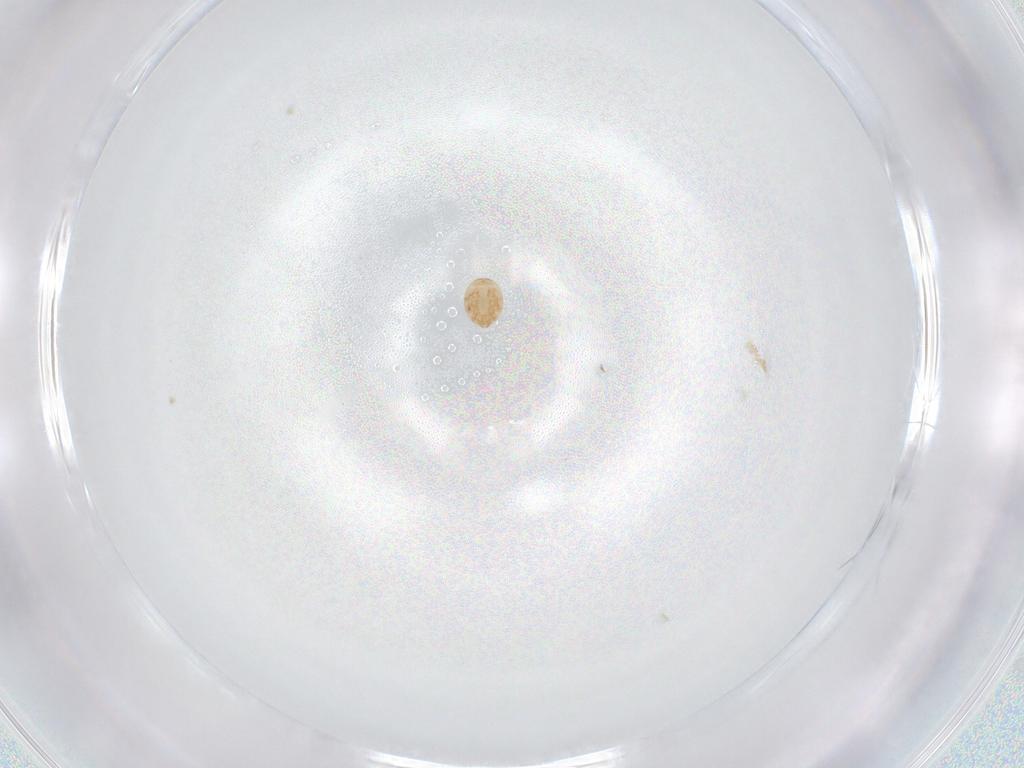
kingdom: Animalia
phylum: Arthropoda
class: Arachnida
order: Mesostigmata
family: Trematuridae
